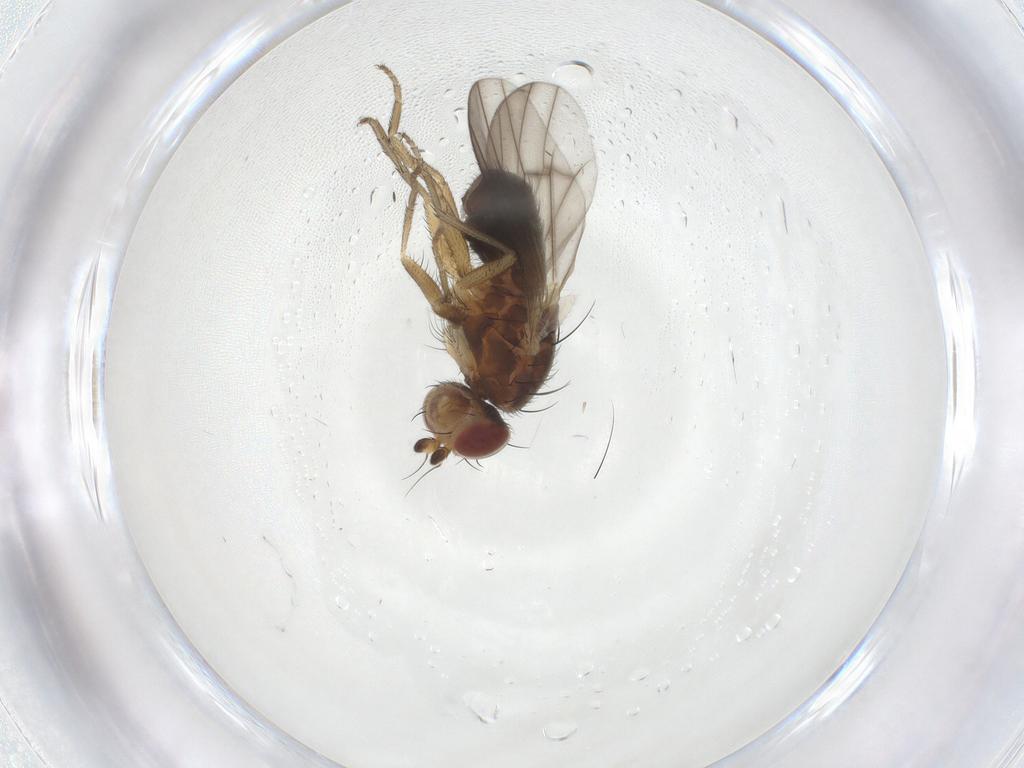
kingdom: Animalia
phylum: Arthropoda
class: Insecta
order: Diptera
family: Heleomyzidae
